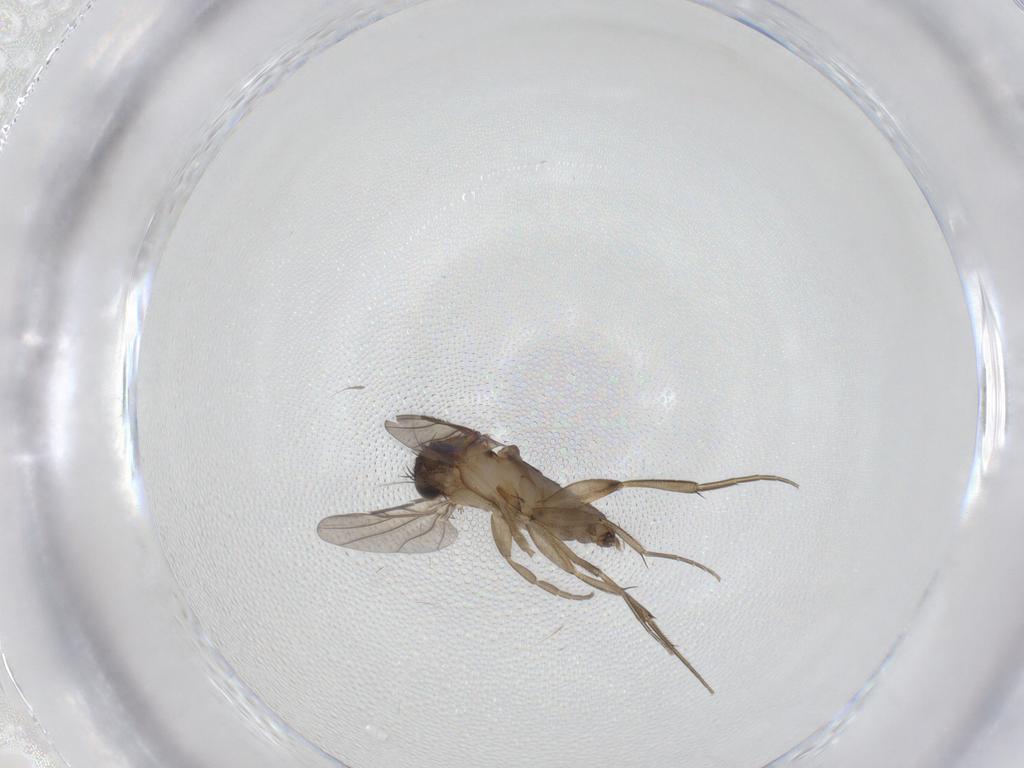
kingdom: Animalia
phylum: Arthropoda
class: Insecta
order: Diptera
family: Phoridae
